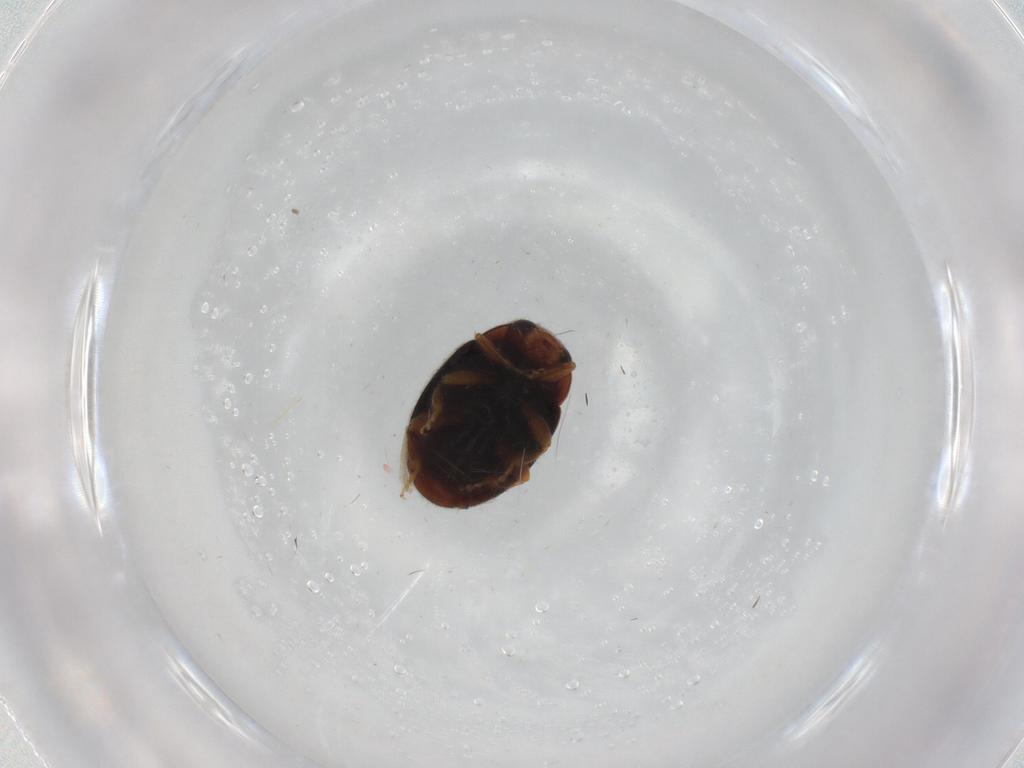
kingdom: Animalia
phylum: Arthropoda
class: Insecta
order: Coleoptera
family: Coccinellidae
